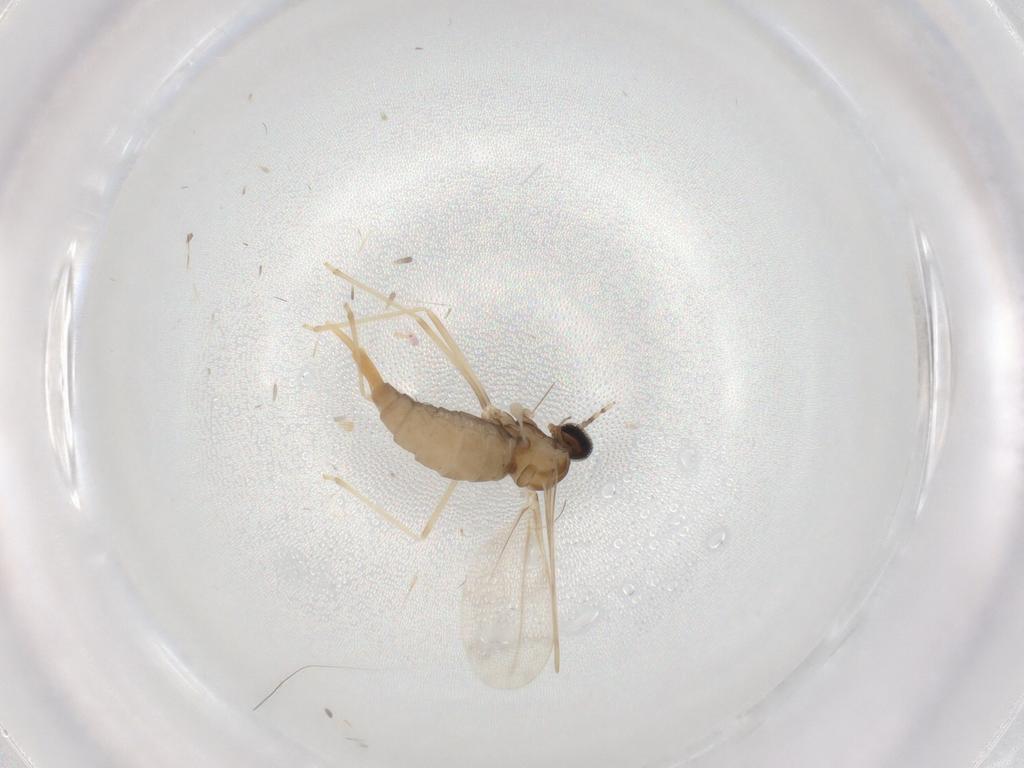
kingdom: Animalia
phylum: Arthropoda
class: Insecta
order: Diptera
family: Cecidomyiidae
